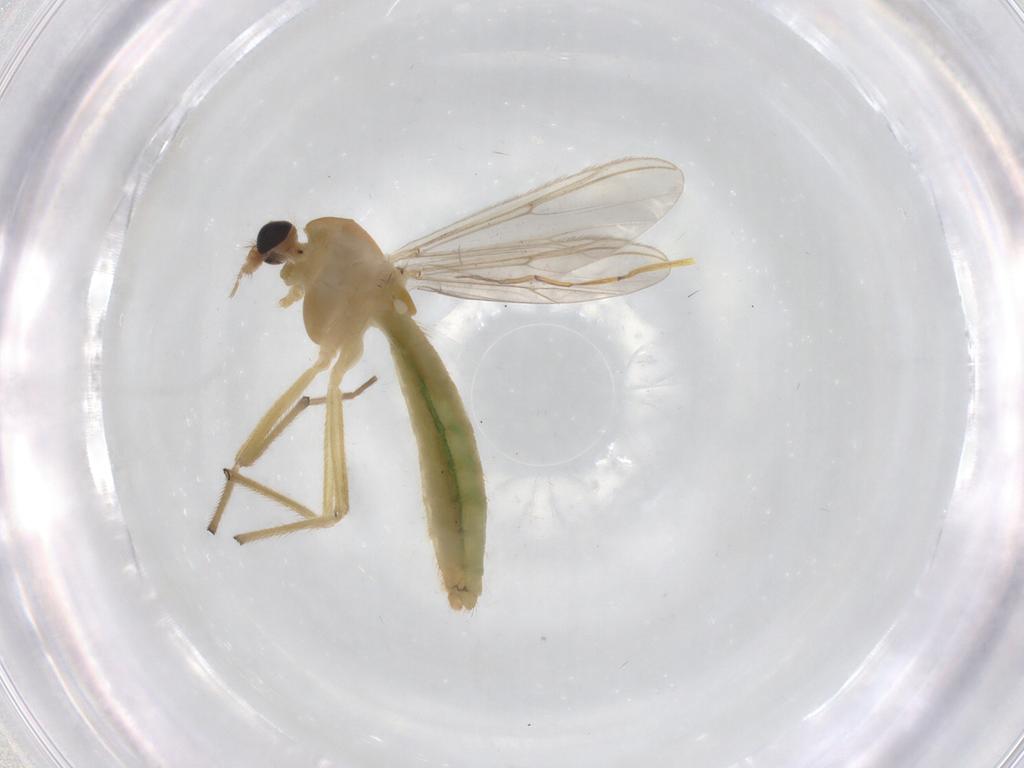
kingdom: Animalia
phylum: Arthropoda
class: Insecta
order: Diptera
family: Chironomidae
